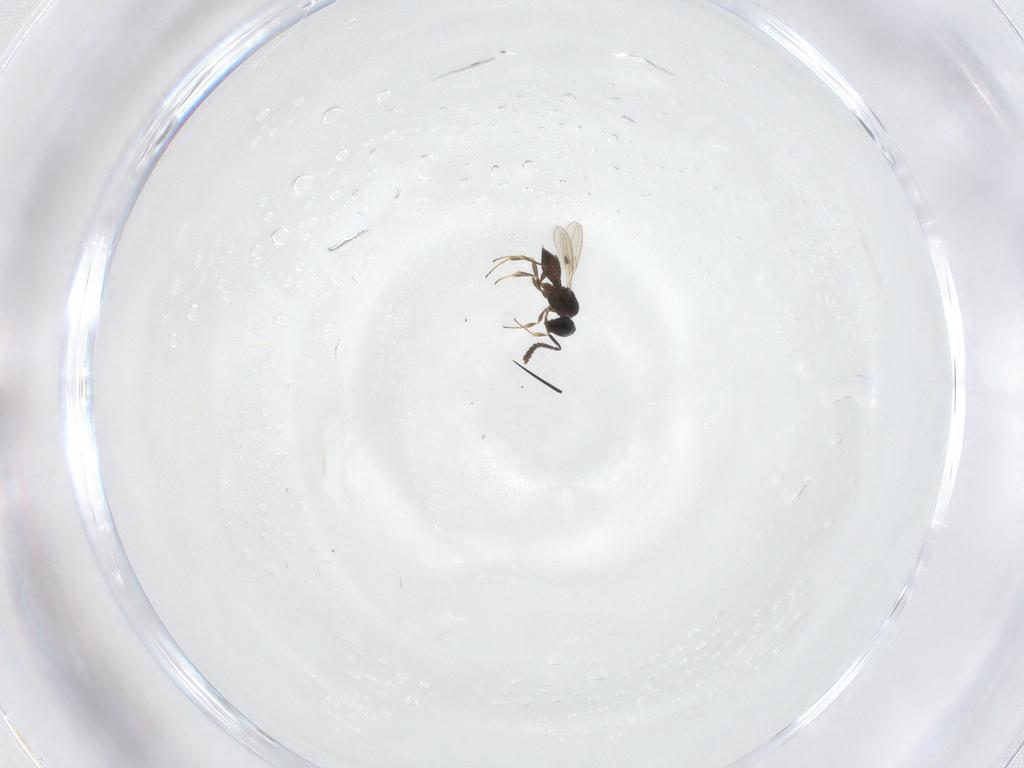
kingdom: Animalia
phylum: Arthropoda
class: Insecta
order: Hymenoptera
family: Scelionidae
